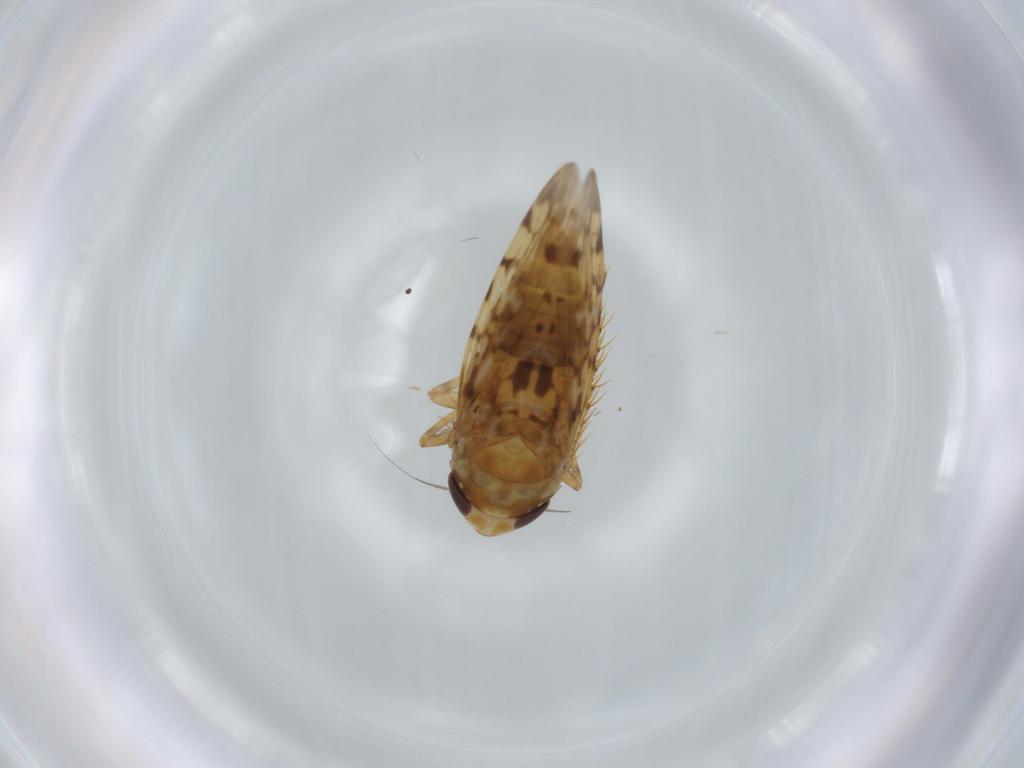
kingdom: Animalia
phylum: Arthropoda
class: Insecta
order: Hemiptera
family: Cicadellidae
